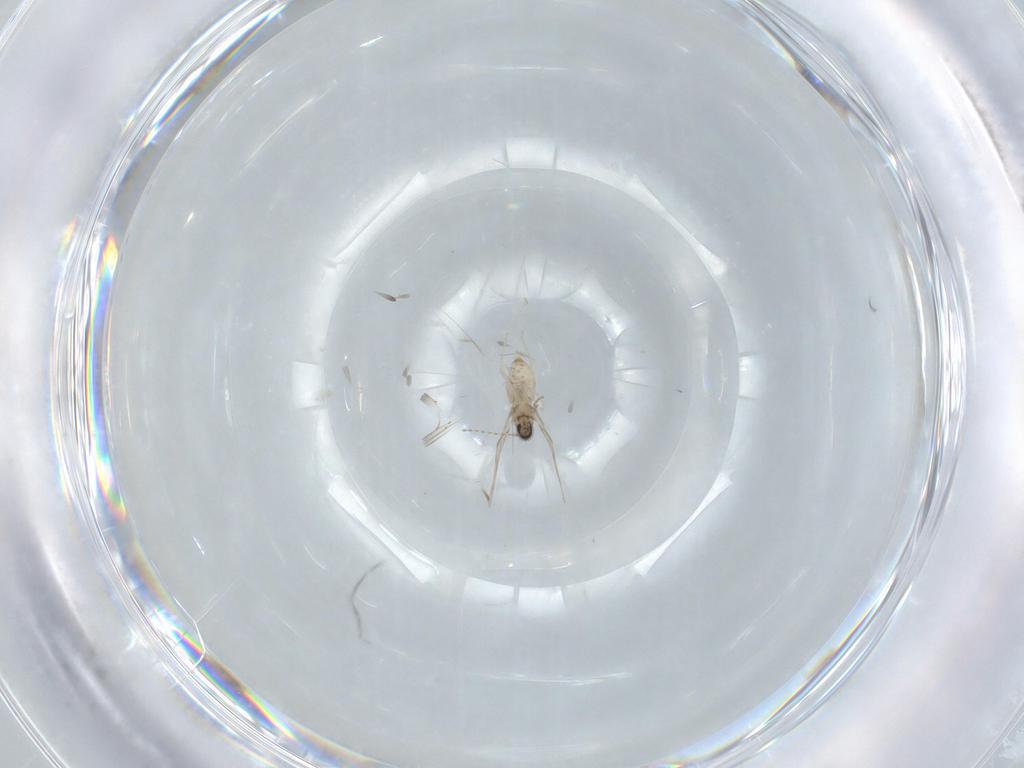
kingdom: Animalia
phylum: Arthropoda
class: Insecta
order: Diptera
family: Cecidomyiidae
